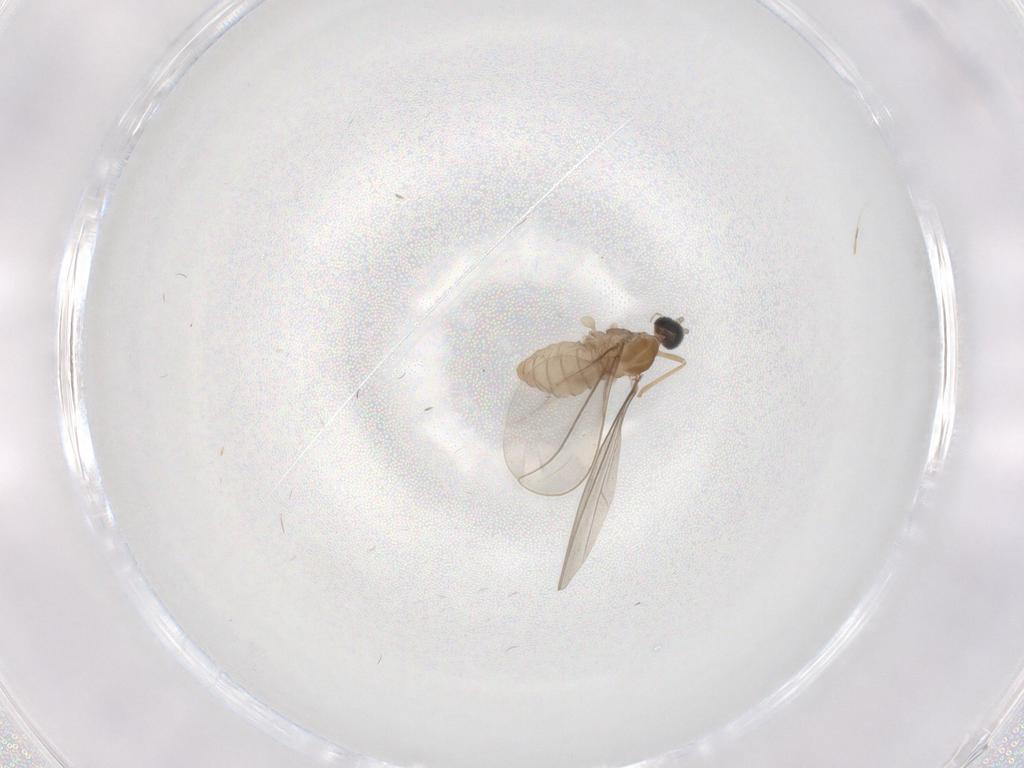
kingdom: Animalia
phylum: Arthropoda
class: Insecta
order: Diptera
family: Cecidomyiidae
